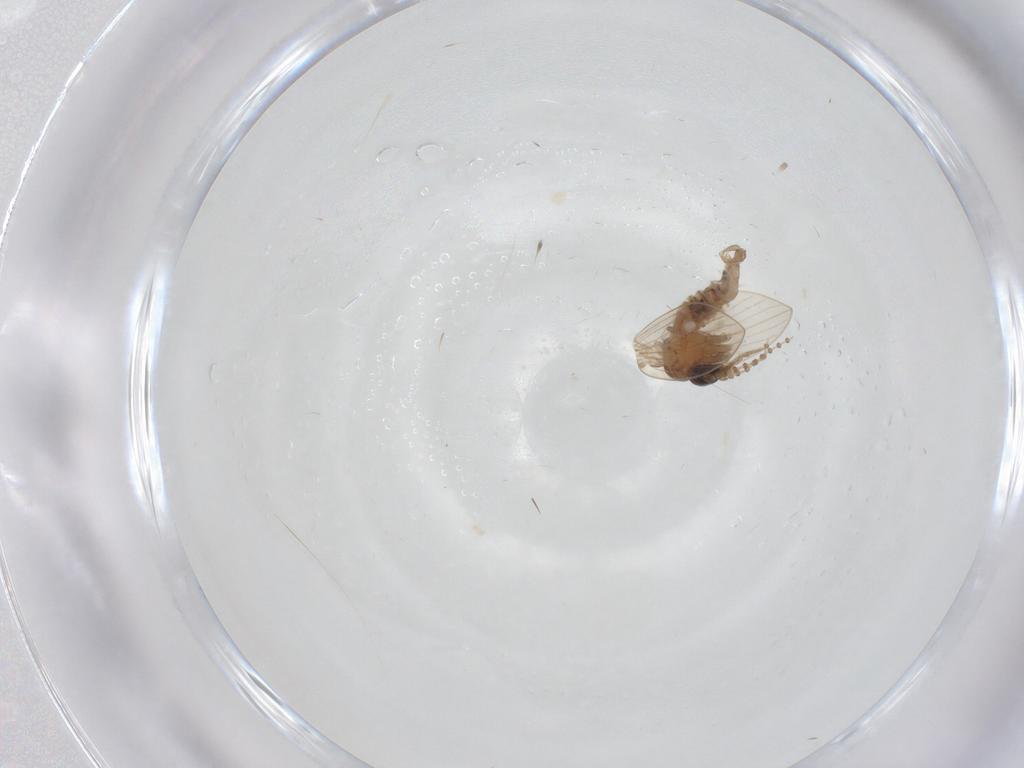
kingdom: Animalia
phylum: Arthropoda
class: Insecta
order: Diptera
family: Psychodidae
